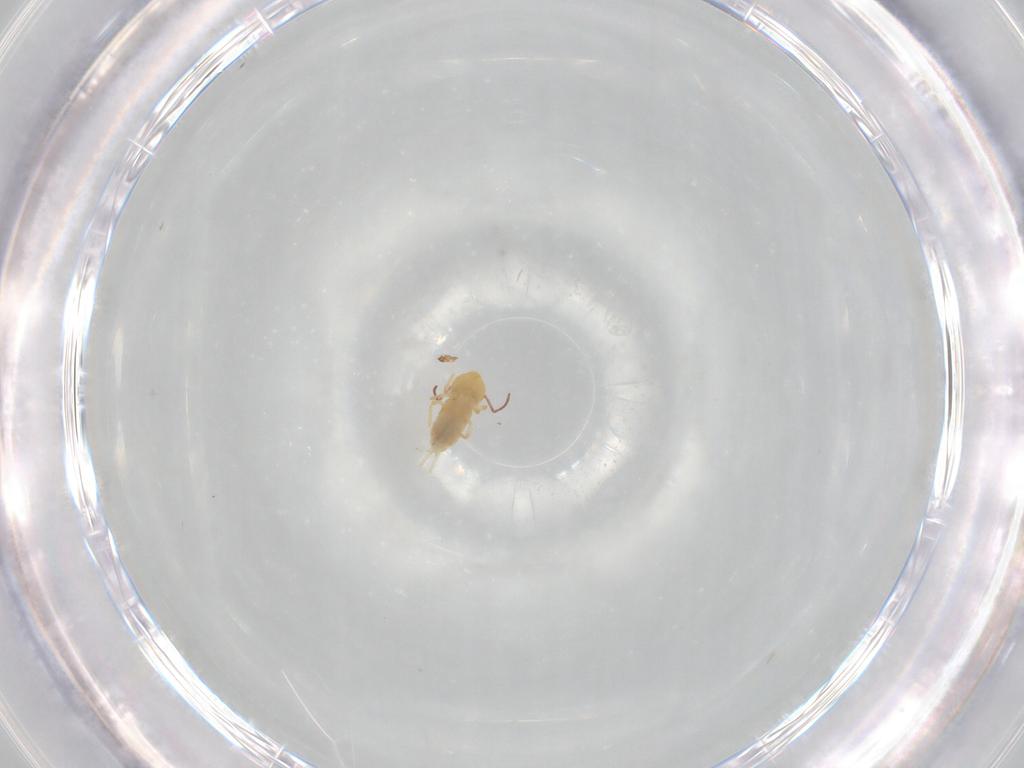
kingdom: Animalia
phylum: Arthropoda
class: Collembola
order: Symphypleona
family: Bourletiellidae
